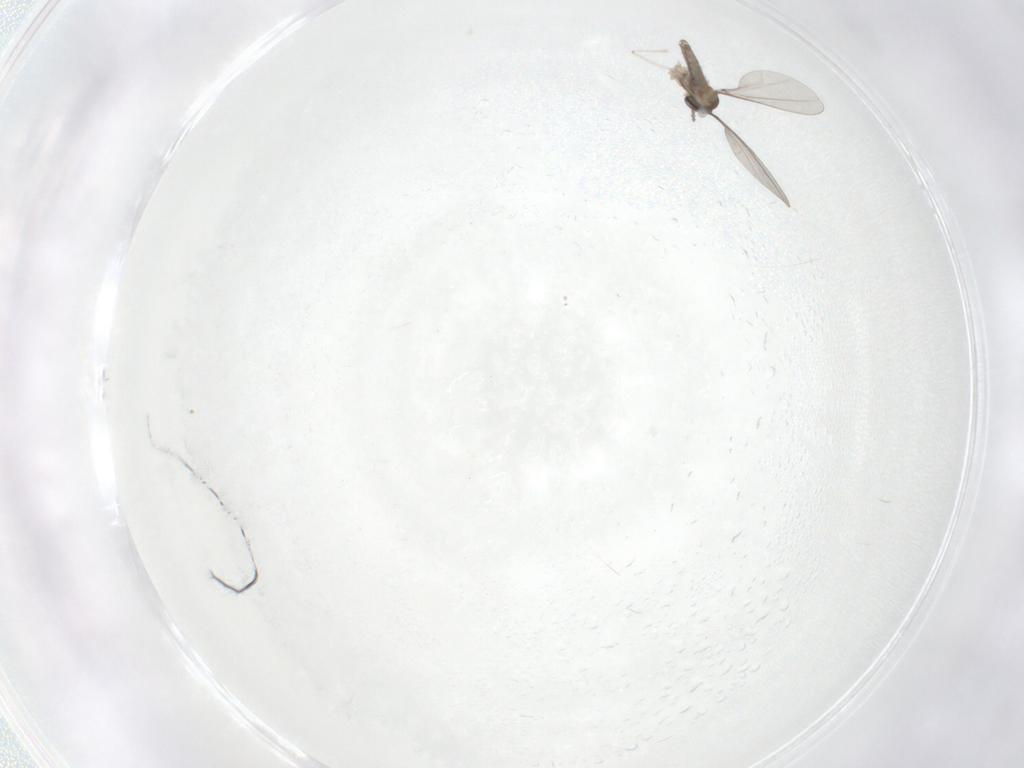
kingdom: Animalia
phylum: Arthropoda
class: Insecta
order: Diptera
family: Cecidomyiidae
